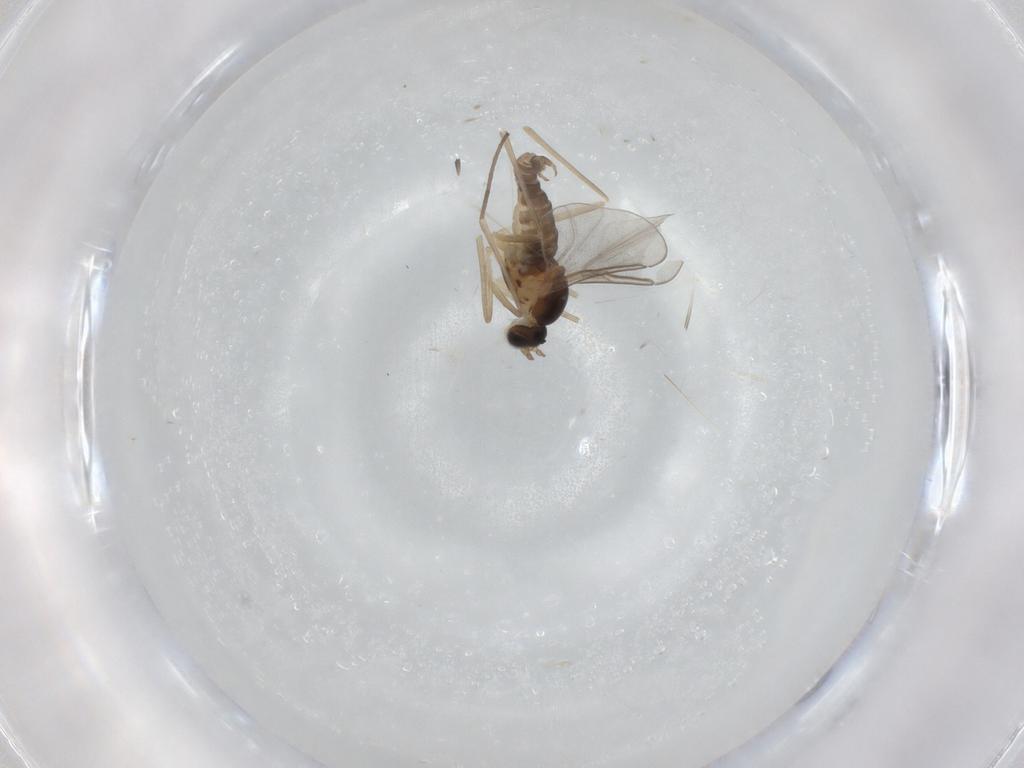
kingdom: Animalia
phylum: Arthropoda
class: Insecta
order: Diptera
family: Cecidomyiidae
